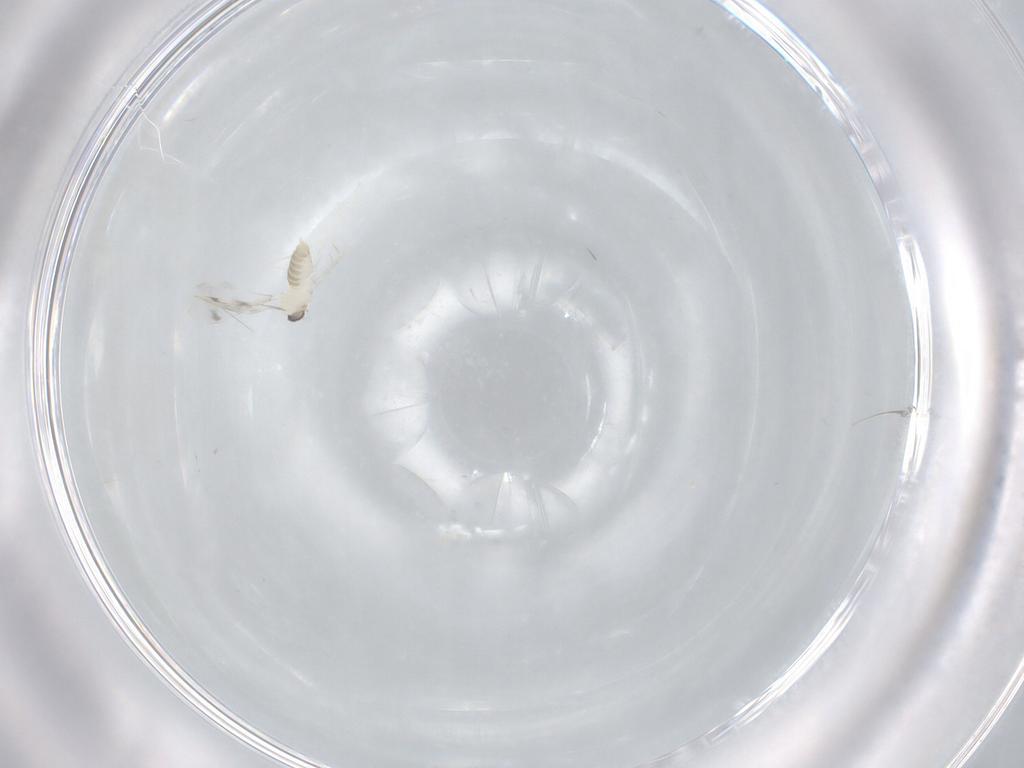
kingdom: Animalia
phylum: Arthropoda
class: Insecta
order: Diptera
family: Cecidomyiidae
